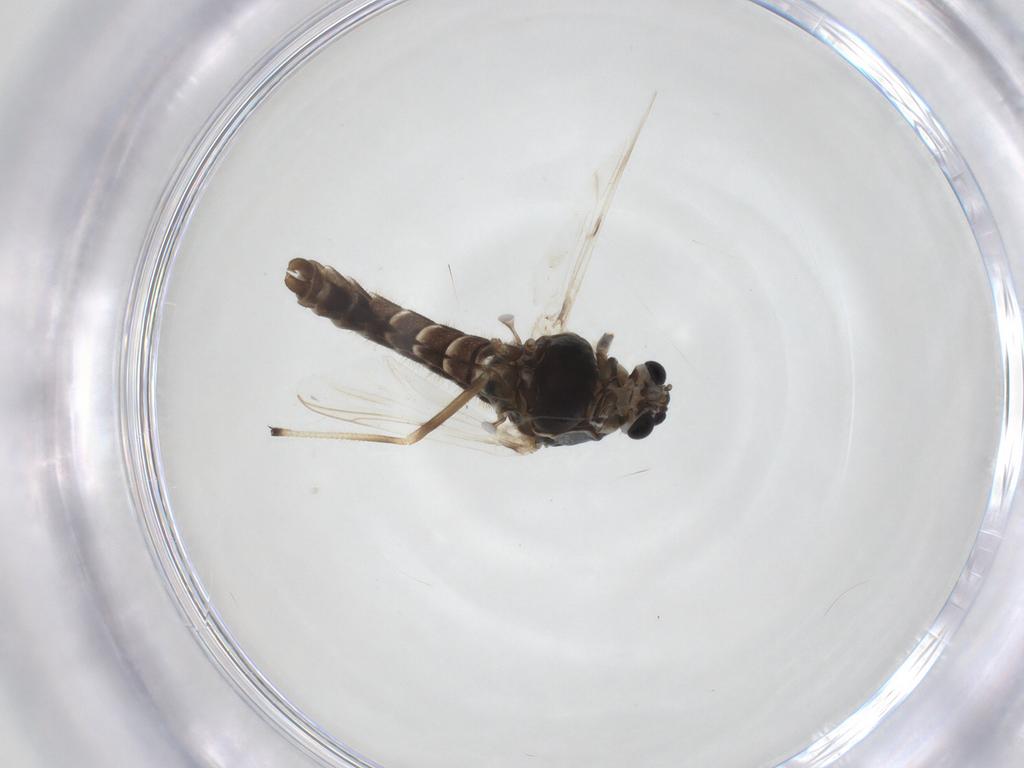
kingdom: Animalia
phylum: Arthropoda
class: Insecta
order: Diptera
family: Chironomidae
